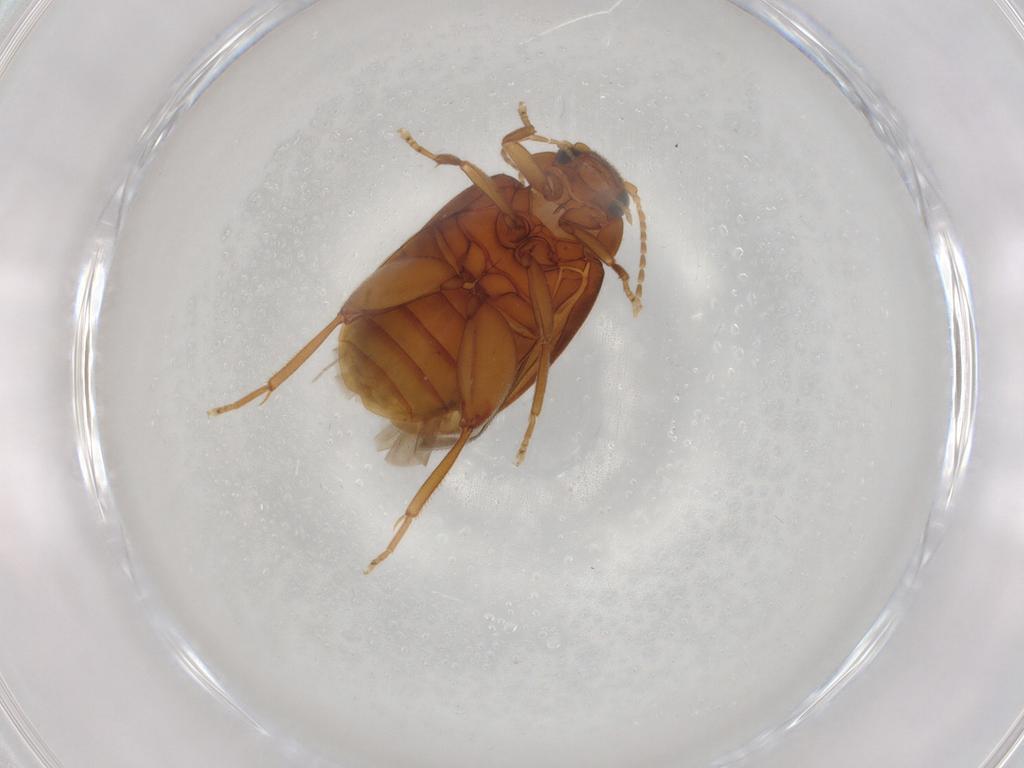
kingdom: Animalia
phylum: Arthropoda
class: Insecta
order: Coleoptera
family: Scirtidae
